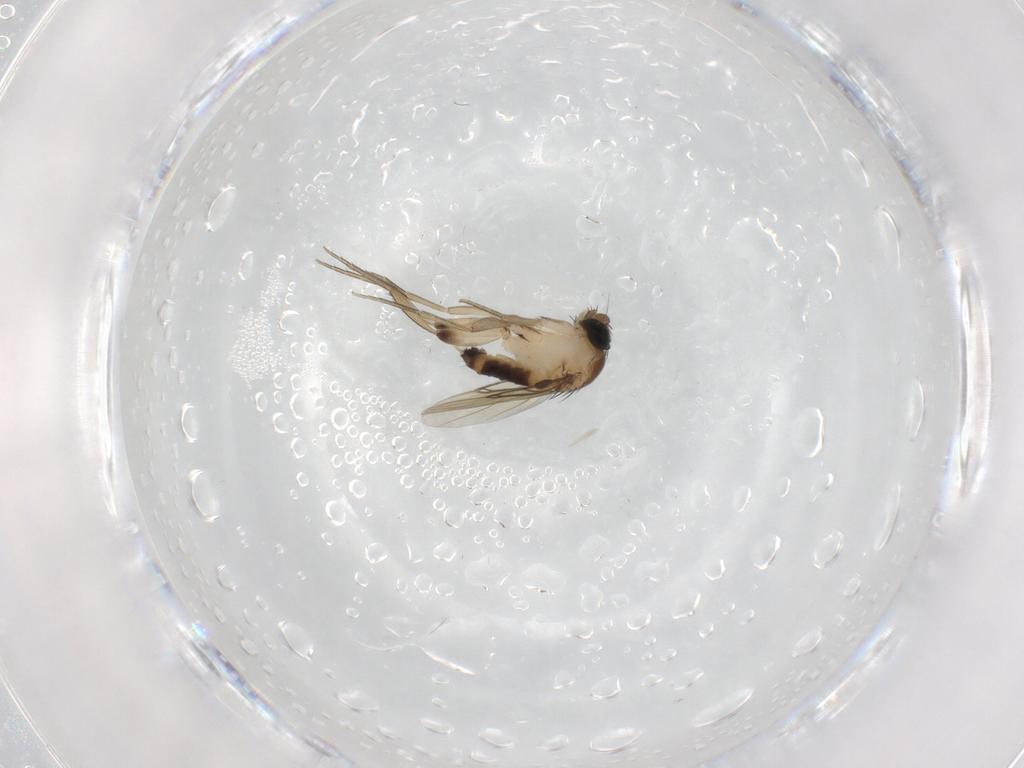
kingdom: Animalia
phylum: Arthropoda
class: Insecta
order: Diptera
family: Phoridae
